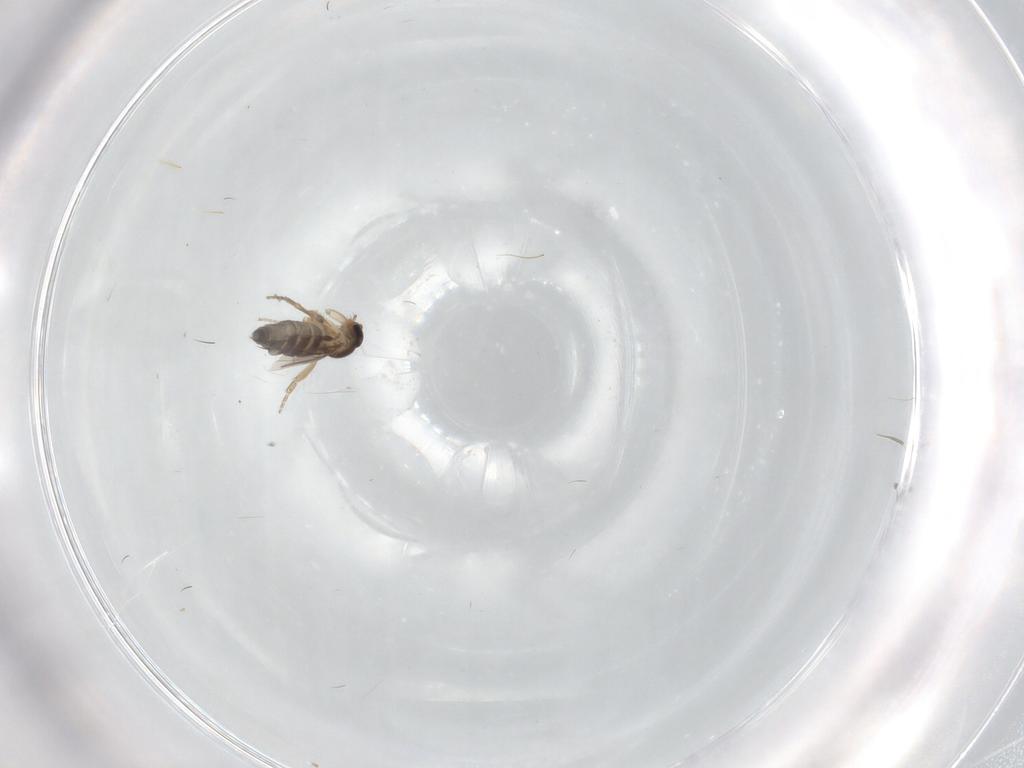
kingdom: Animalia
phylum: Arthropoda
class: Insecta
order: Diptera
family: Phoridae
